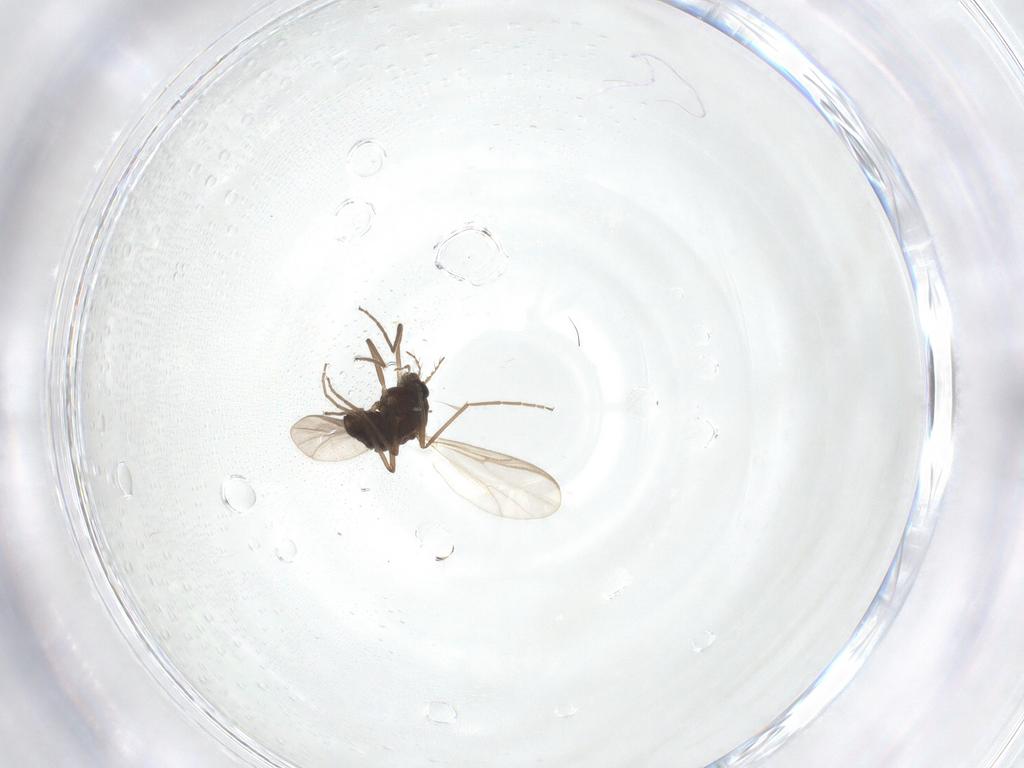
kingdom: Animalia
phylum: Arthropoda
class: Insecta
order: Diptera
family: Chironomidae
